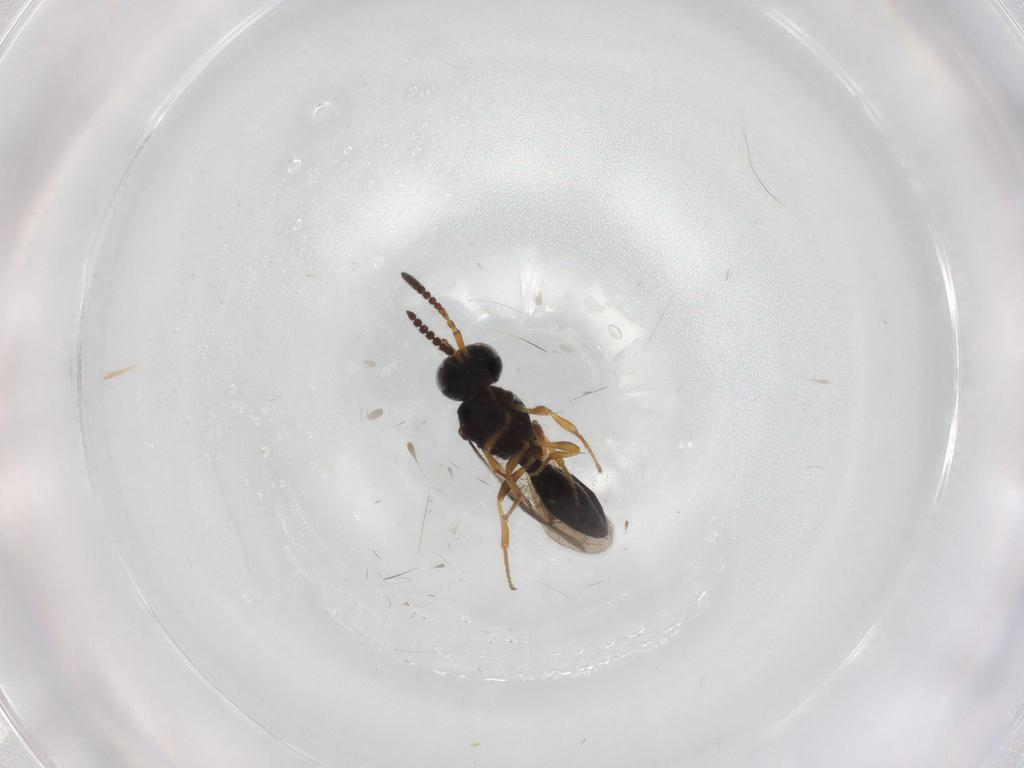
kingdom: Animalia
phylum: Arthropoda
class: Insecta
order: Hymenoptera
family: Scelionidae
